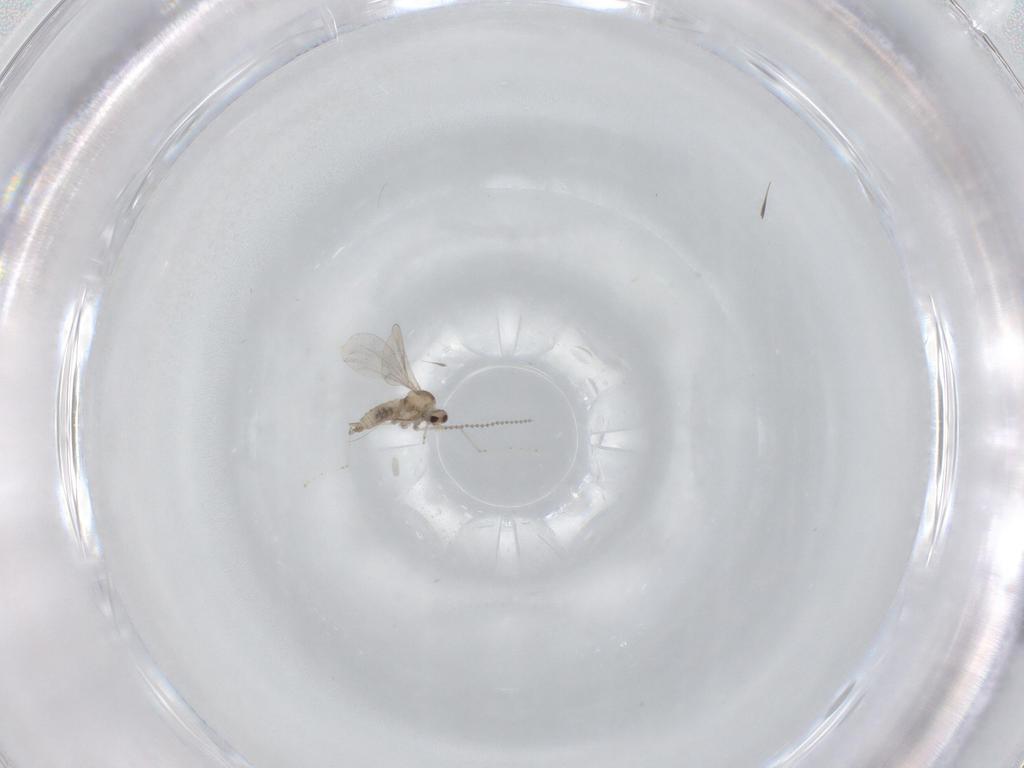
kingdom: Animalia
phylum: Arthropoda
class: Insecta
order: Diptera
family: Cecidomyiidae
